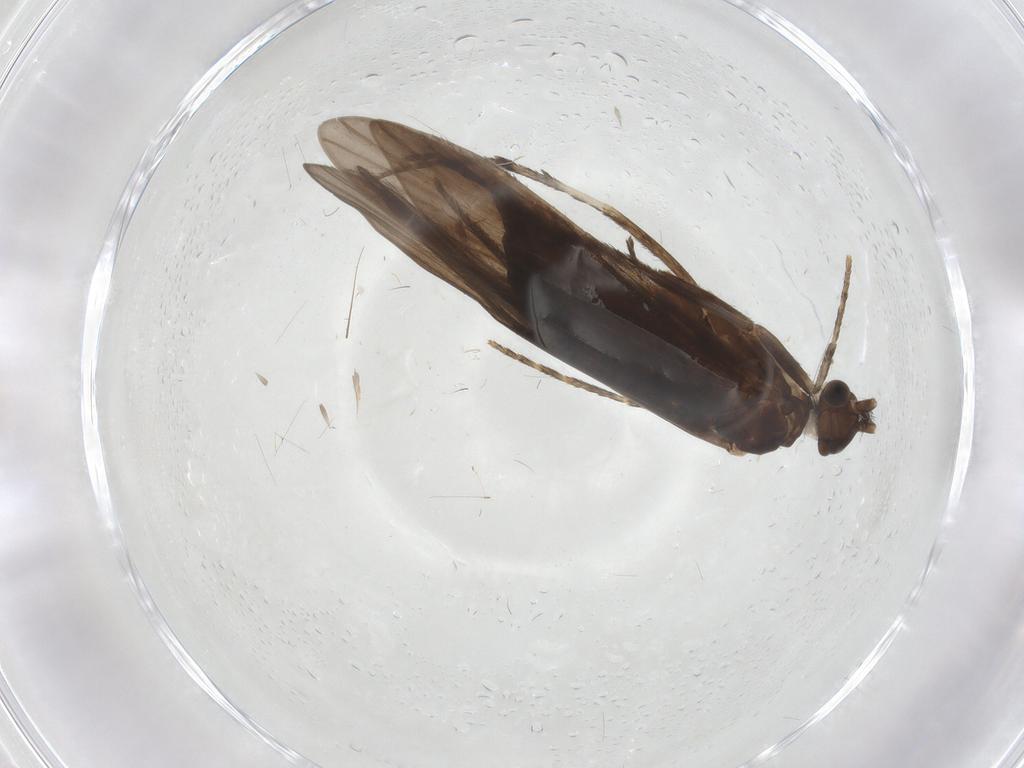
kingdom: Animalia
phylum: Arthropoda
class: Insecta
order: Trichoptera
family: Xiphocentronidae
